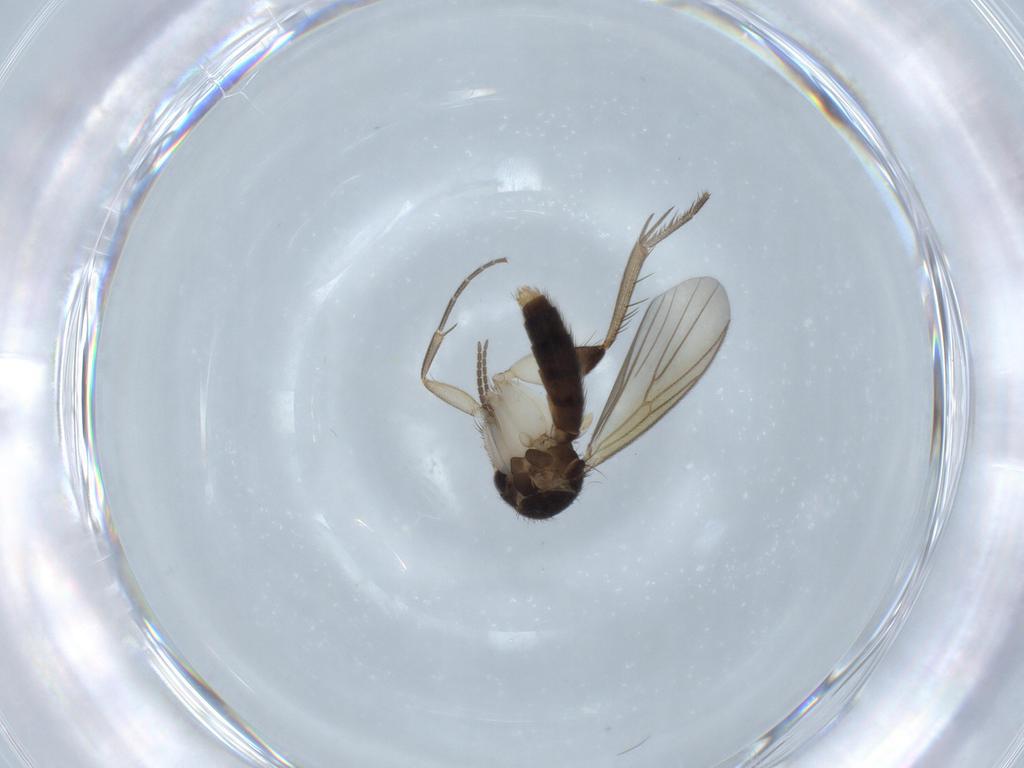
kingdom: Animalia
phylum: Arthropoda
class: Insecta
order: Diptera
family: Mycetophilidae
